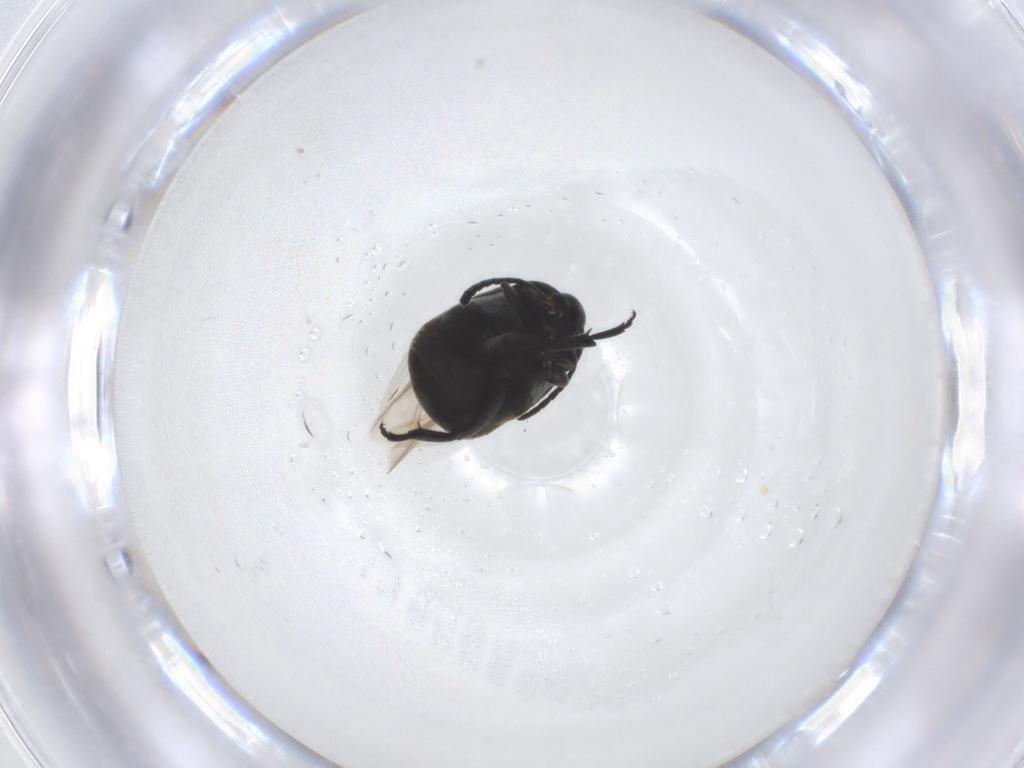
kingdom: Animalia
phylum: Arthropoda
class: Insecta
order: Coleoptera
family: Chrysomelidae
